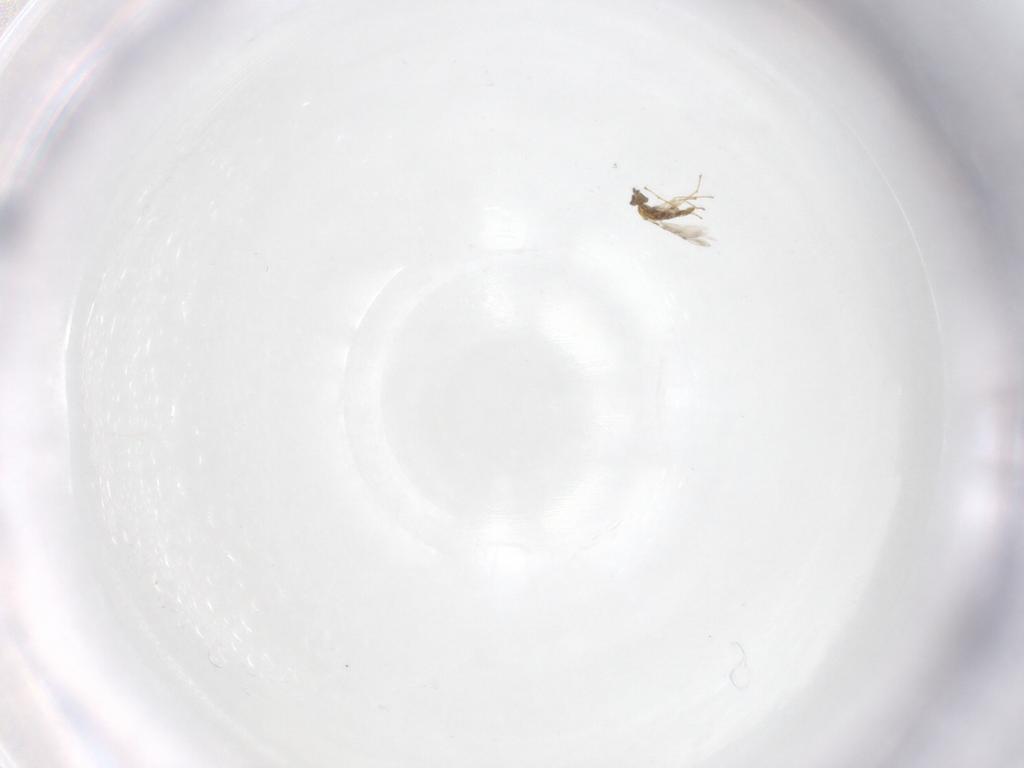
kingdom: Animalia
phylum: Arthropoda
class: Insecta
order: Hymenoptera
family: Eulophidae
